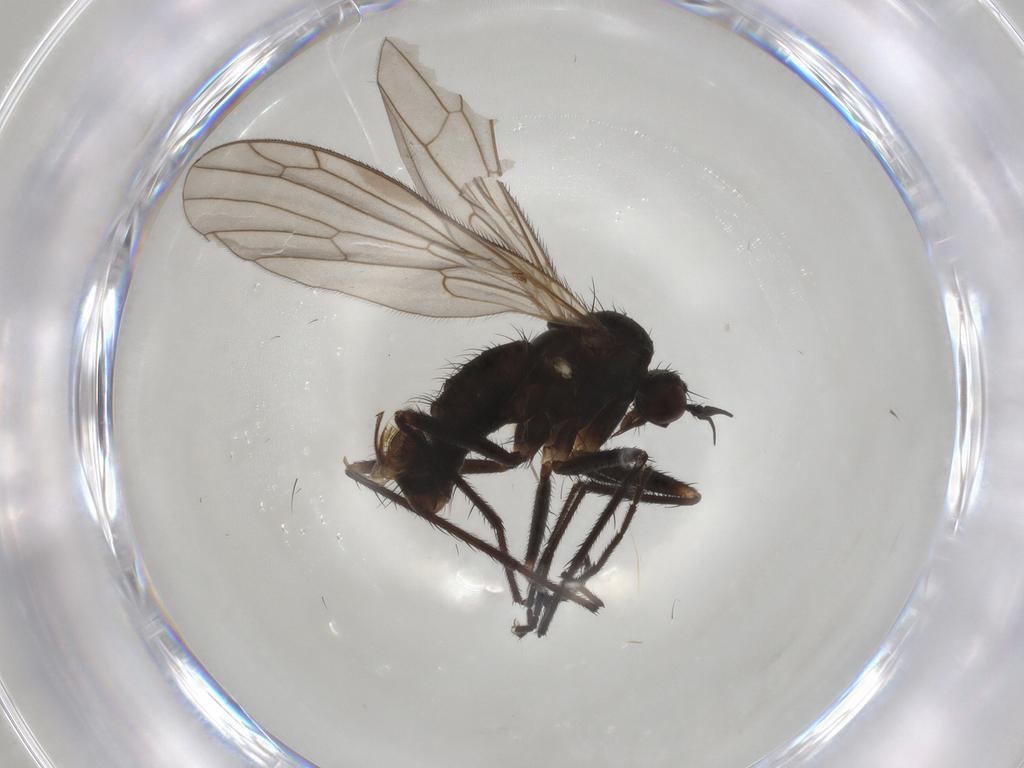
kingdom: Animalia
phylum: Arthropoda
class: Insecta
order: Diptera
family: Empididae
